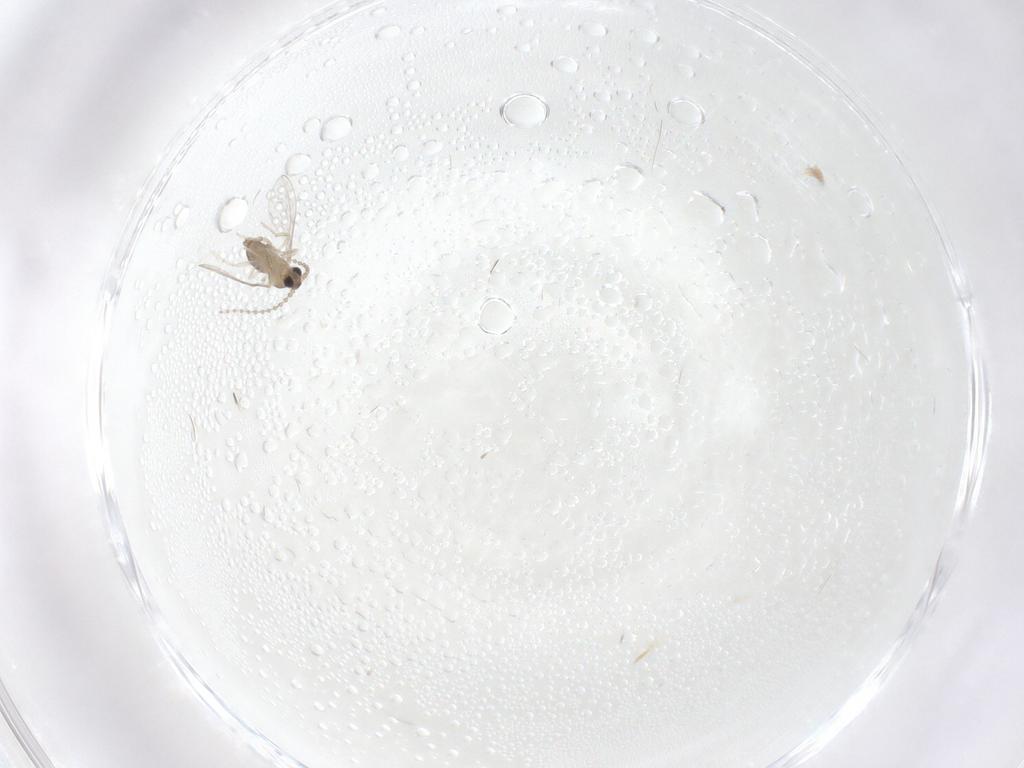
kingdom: Animalia
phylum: Arthropoda
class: Insecta
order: Diptera
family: Cecidomyiidae
